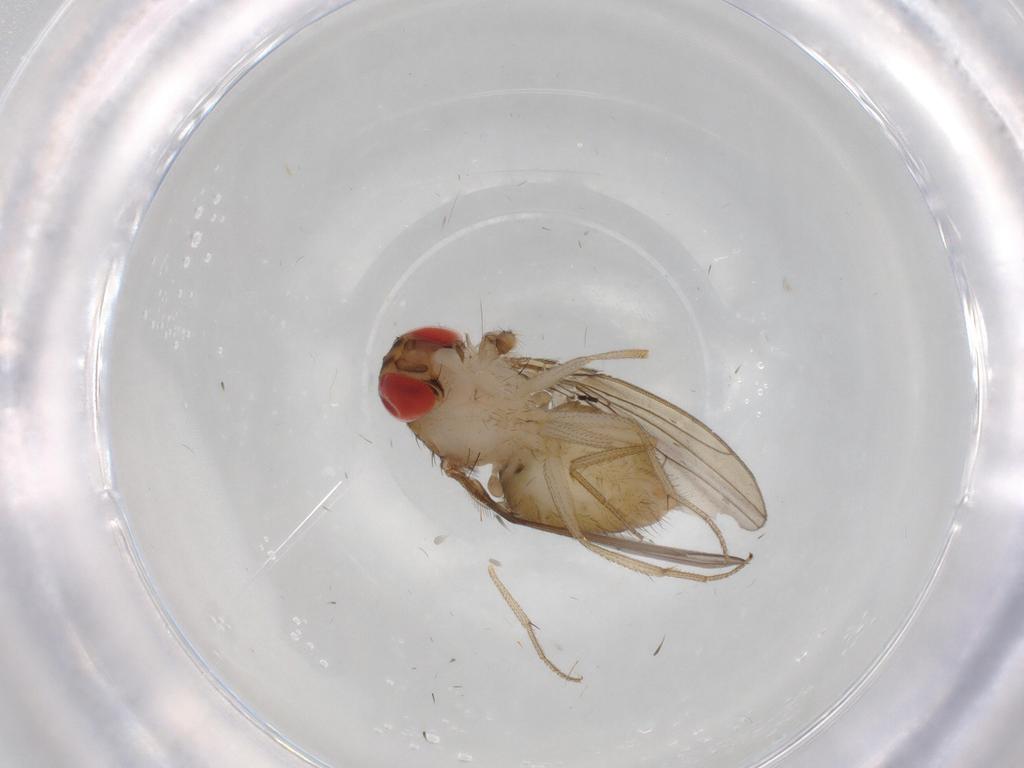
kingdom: Animalia
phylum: Arthropoda
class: Insecta
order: Diptera
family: Drosophilidae
